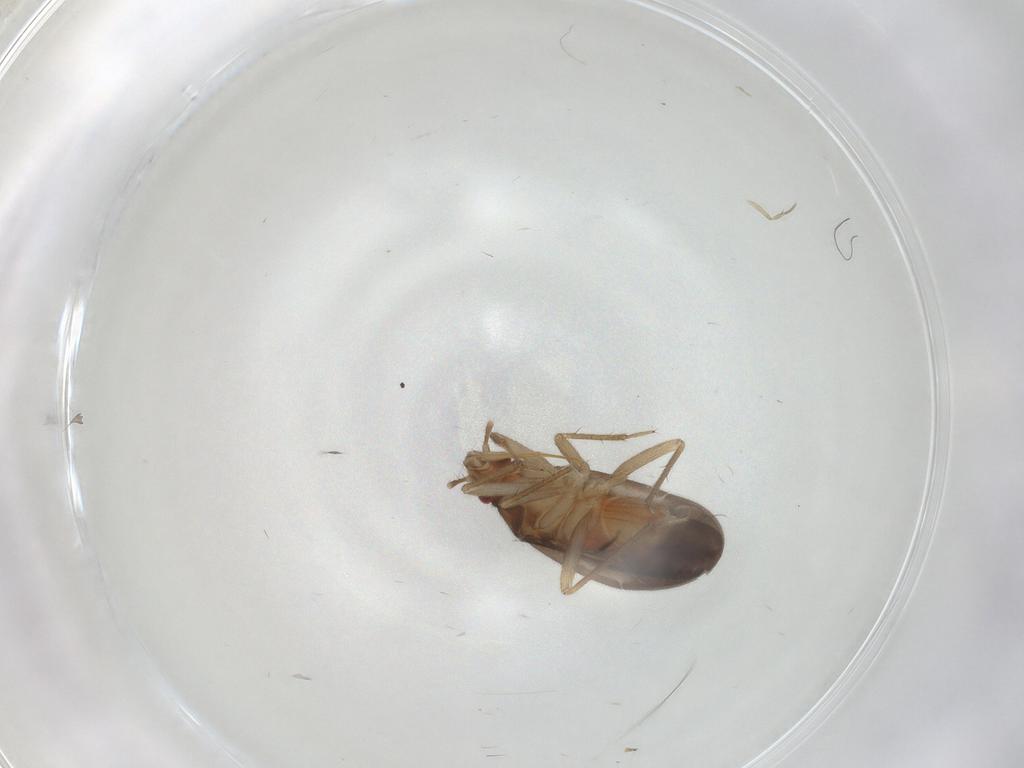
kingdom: Animalia
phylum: Arthropoda
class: Insecta
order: Hemiptera
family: Ceratocombidae
